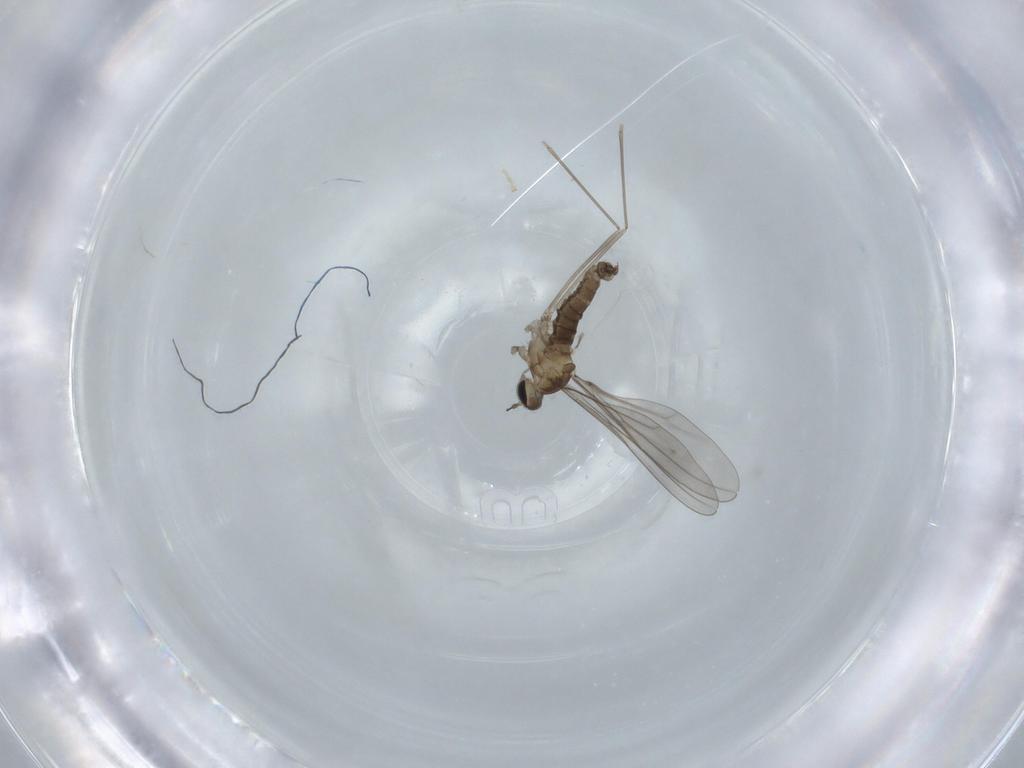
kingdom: Animalia
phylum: Arthropoda
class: Insecta
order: Diptera
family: Cecidomyiidae
